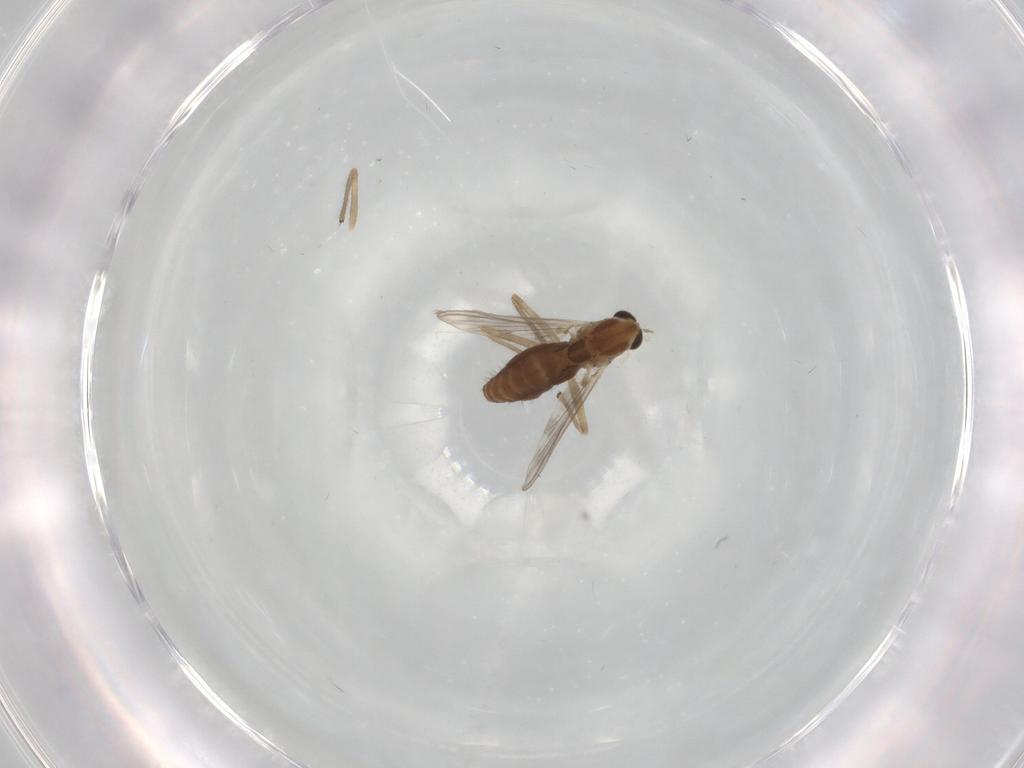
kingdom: Animalia
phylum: Arthropoda
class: Insecta
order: Diptera
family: Chironomidae
